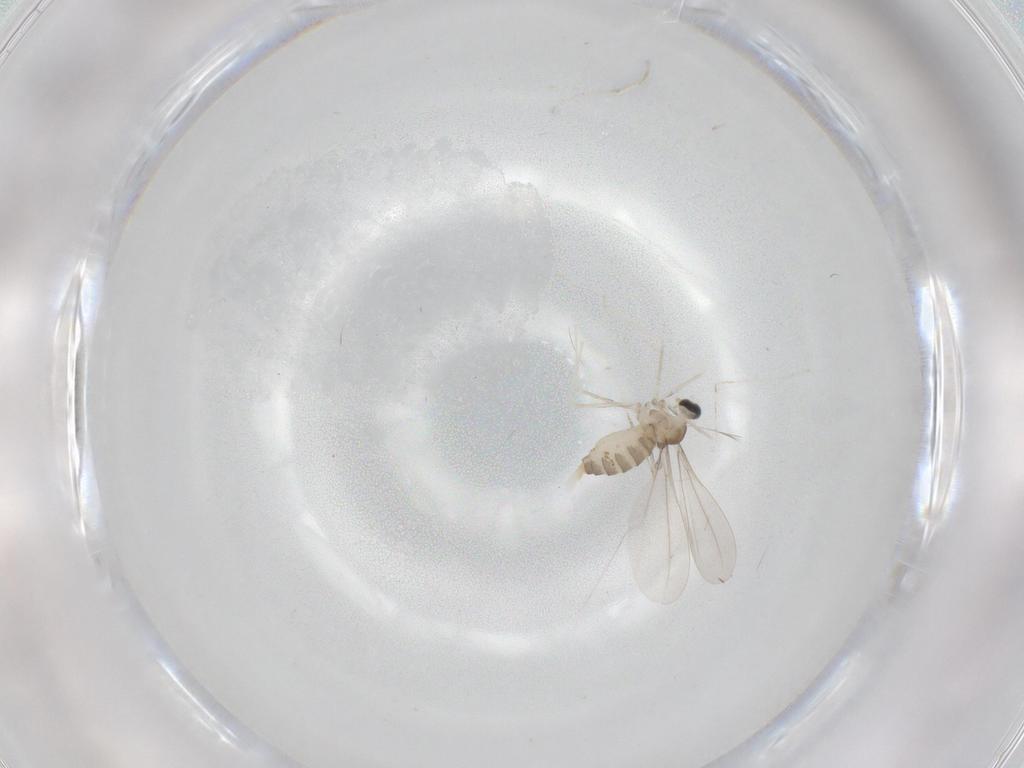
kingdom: Animalia
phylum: Arthropoda
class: Insecta
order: Diptera
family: Cecidomyiidae
